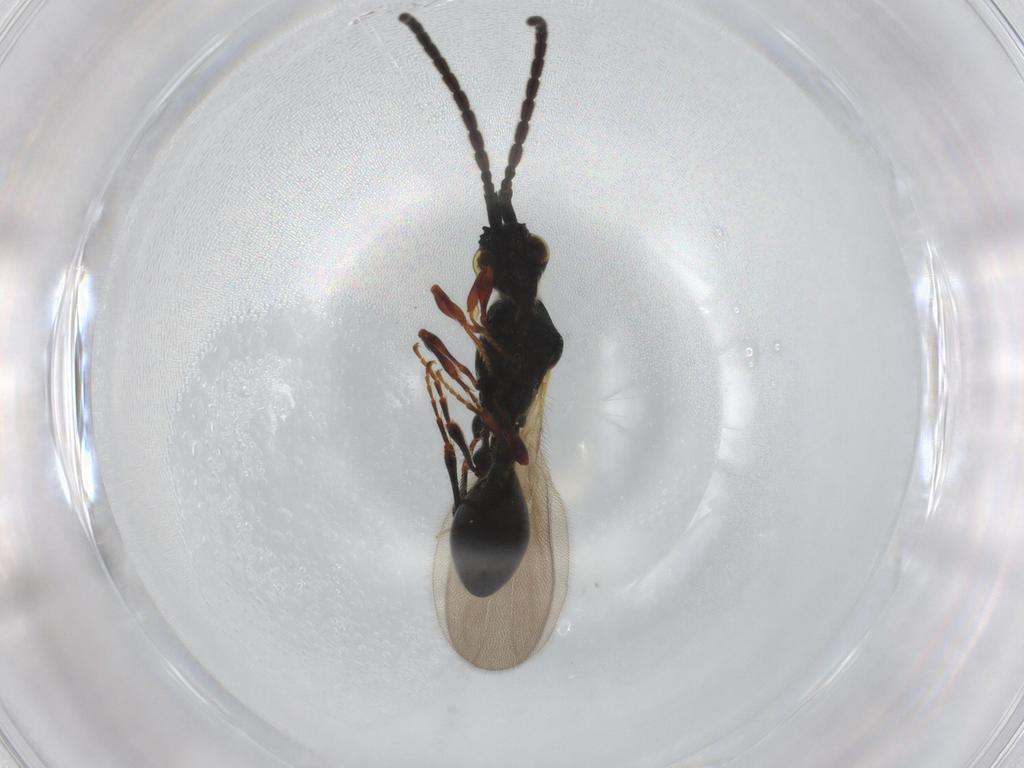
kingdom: Animalia
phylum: Arthropoda
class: Insecta
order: Hymenoptera
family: Diapriidae
